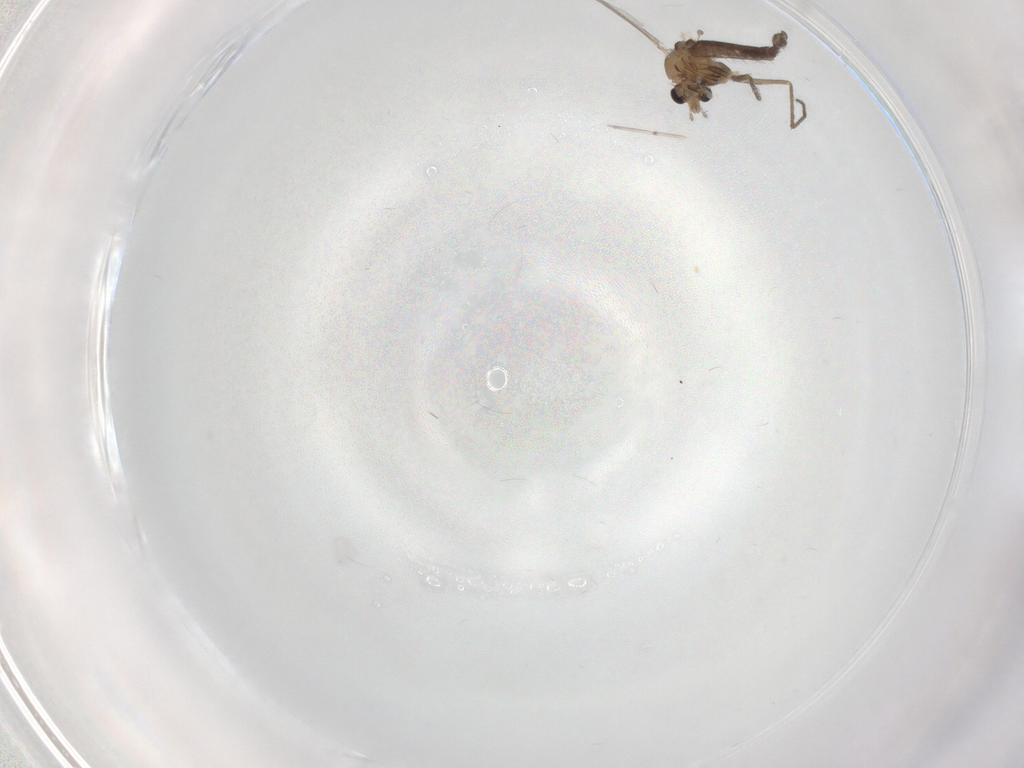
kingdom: Animalia
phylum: Arthropoda
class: Insecta
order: Diptera
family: Chironomidae
